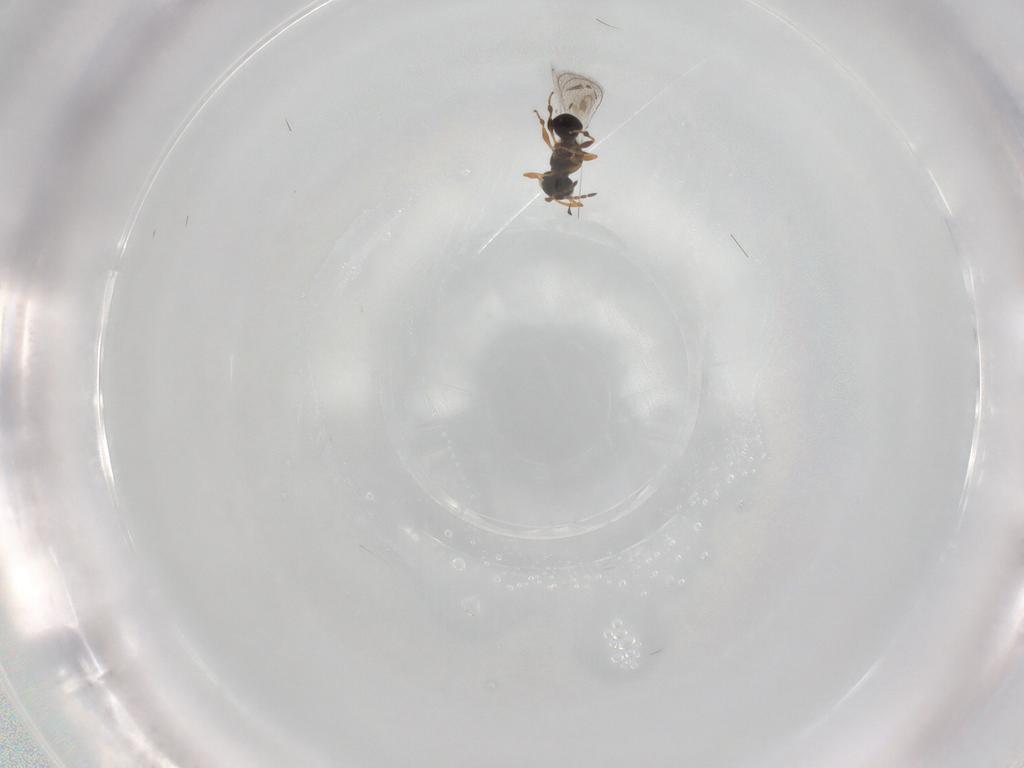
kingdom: Animalia
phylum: Arthropoda
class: Insecta
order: Hymenoptera
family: Platygastridae
